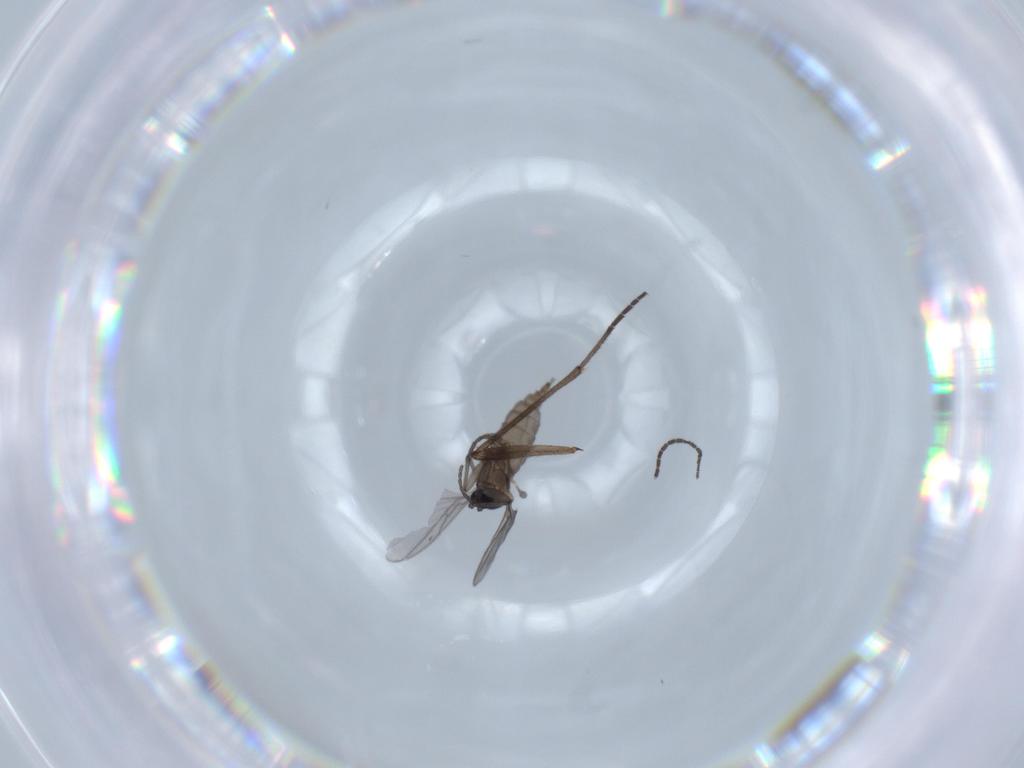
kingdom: Animalia
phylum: Arthropoda
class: Insecta
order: Diptera
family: Sciaridae
